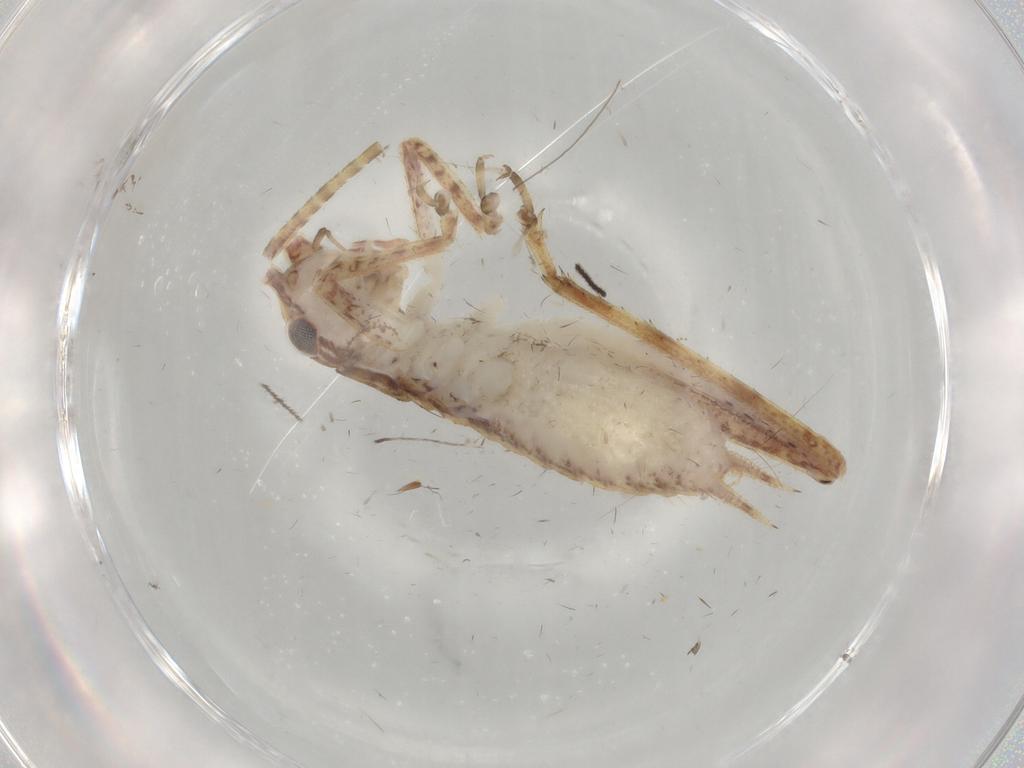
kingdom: Animalia
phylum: Arthropoda
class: Insecta
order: Orthoptera
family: Gryllidae
